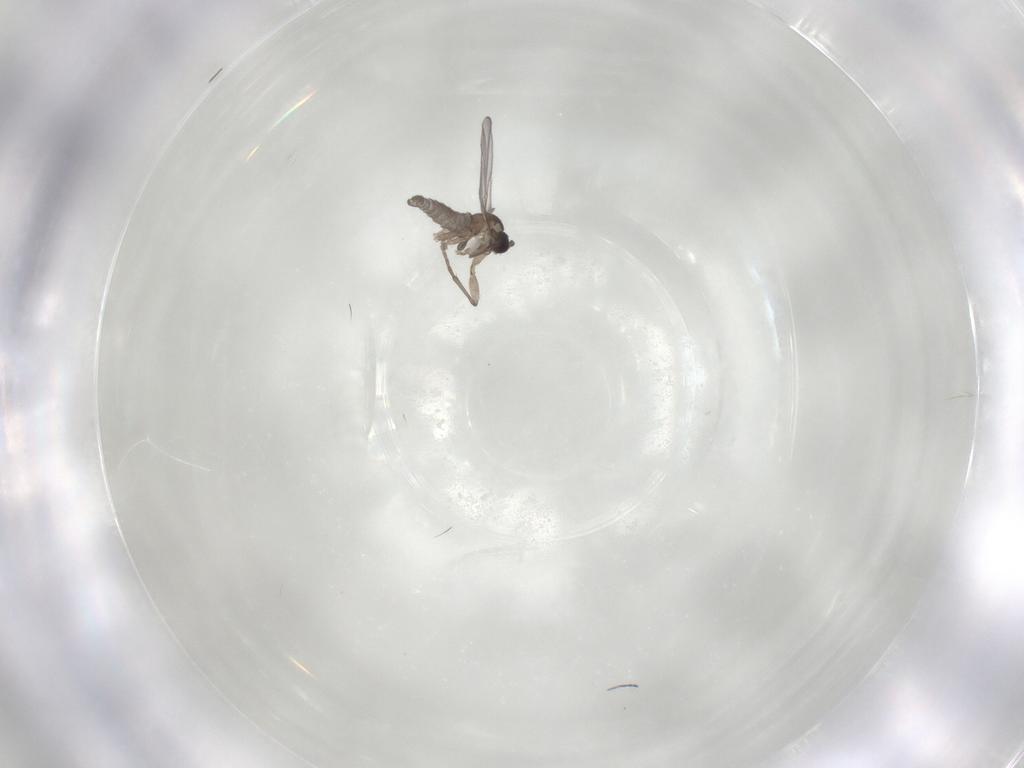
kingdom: Animalia
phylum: Arthropoda
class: Insecta
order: Diptera
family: Sciaridae
